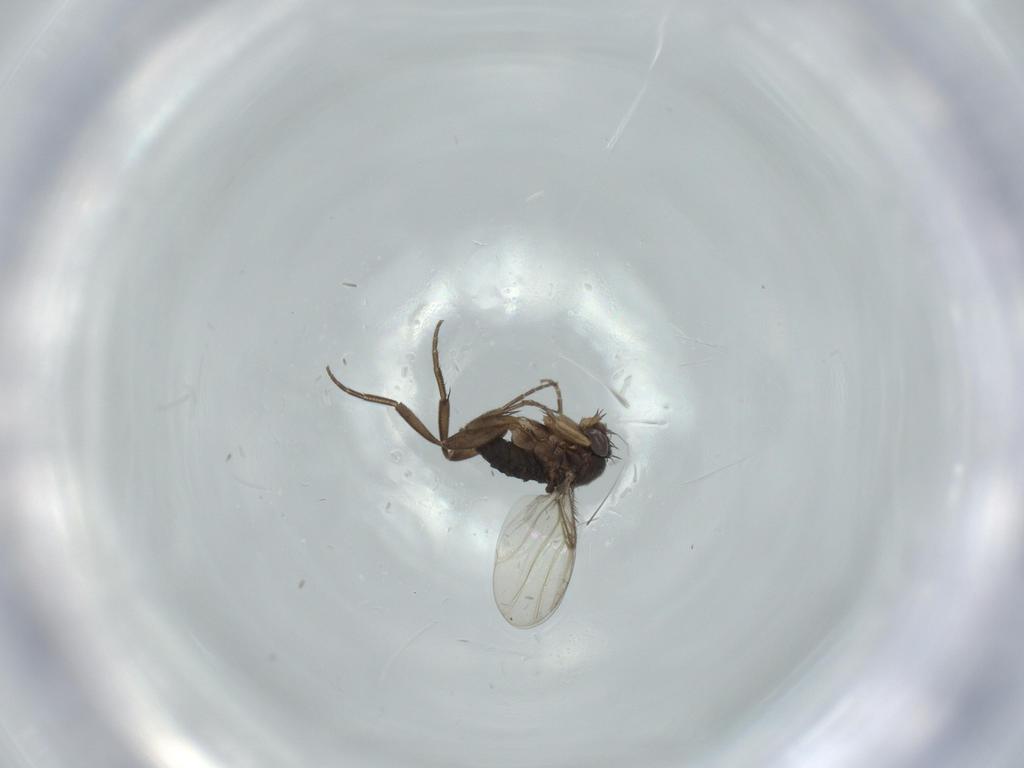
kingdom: Animalia
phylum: Arthropoda
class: Insecta
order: Diptera
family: Phoridae
